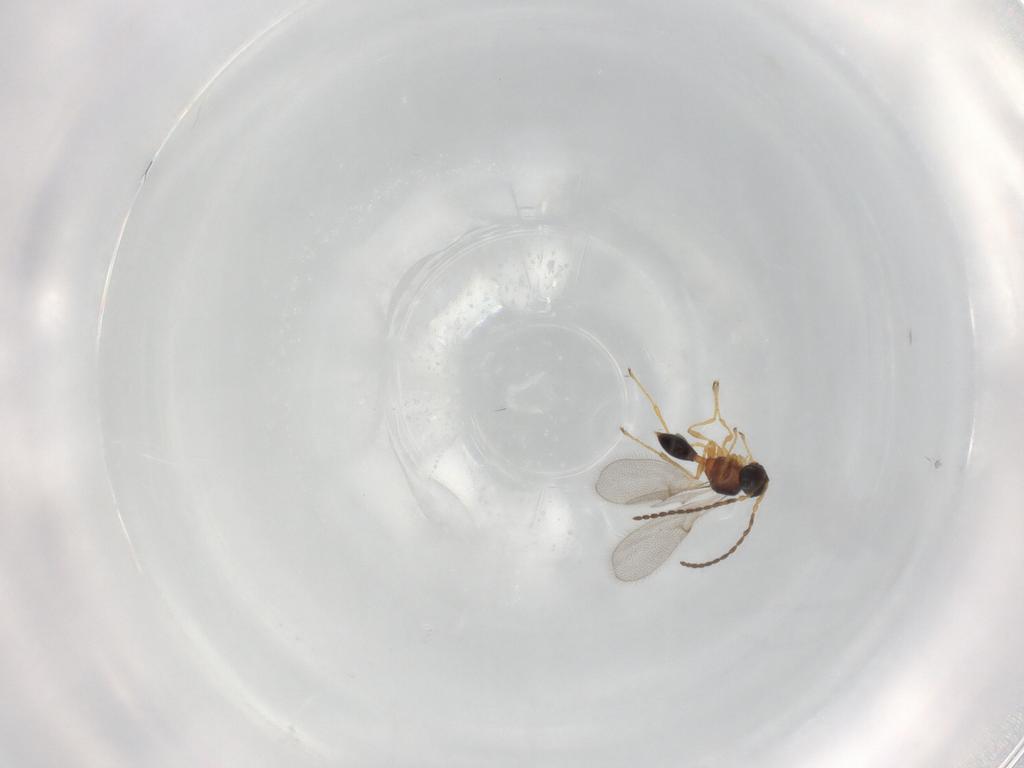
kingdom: Animalia
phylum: Arthropoda
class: Insecta
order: Hymenoptera
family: Diapriidae
